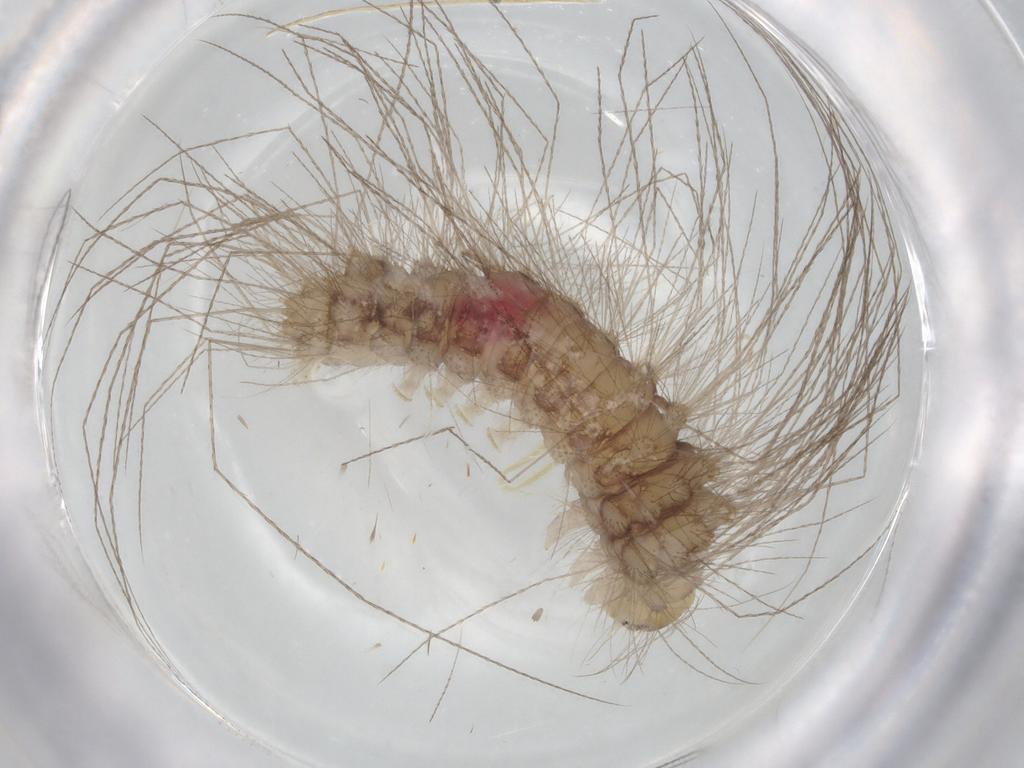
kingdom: Animalia
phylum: Arthropoda
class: Insecta
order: Lepidoptera
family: Erebidae
